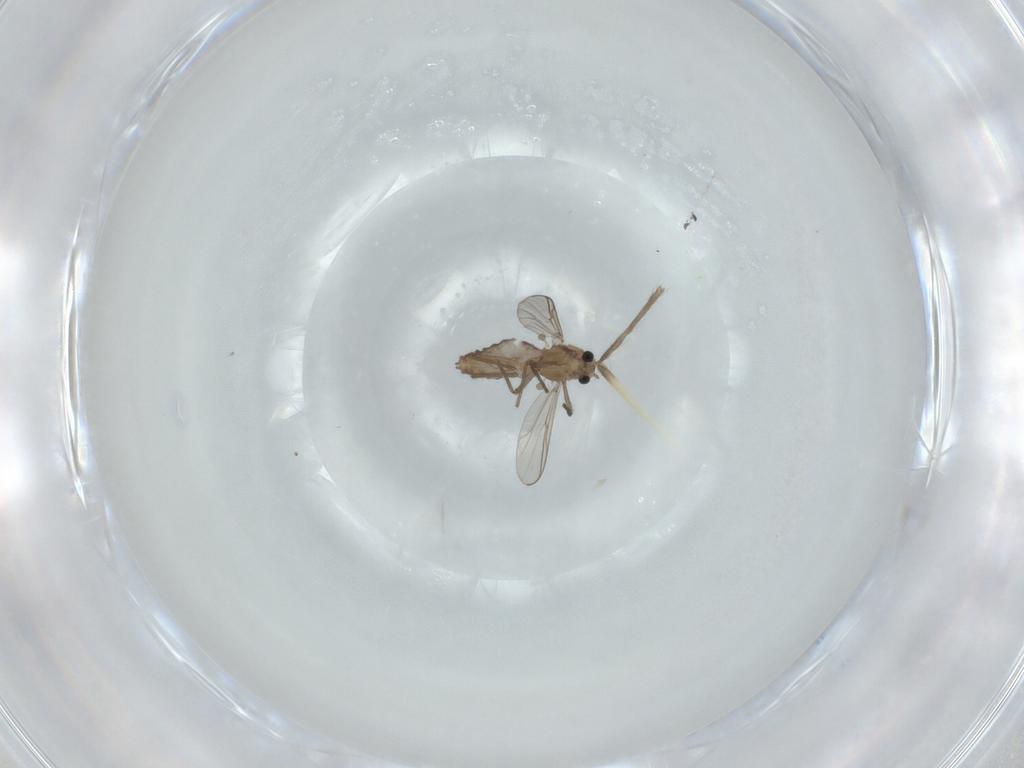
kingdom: Animalia
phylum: Arthropoda
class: Insecta
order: Diptera
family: Chironomidae
